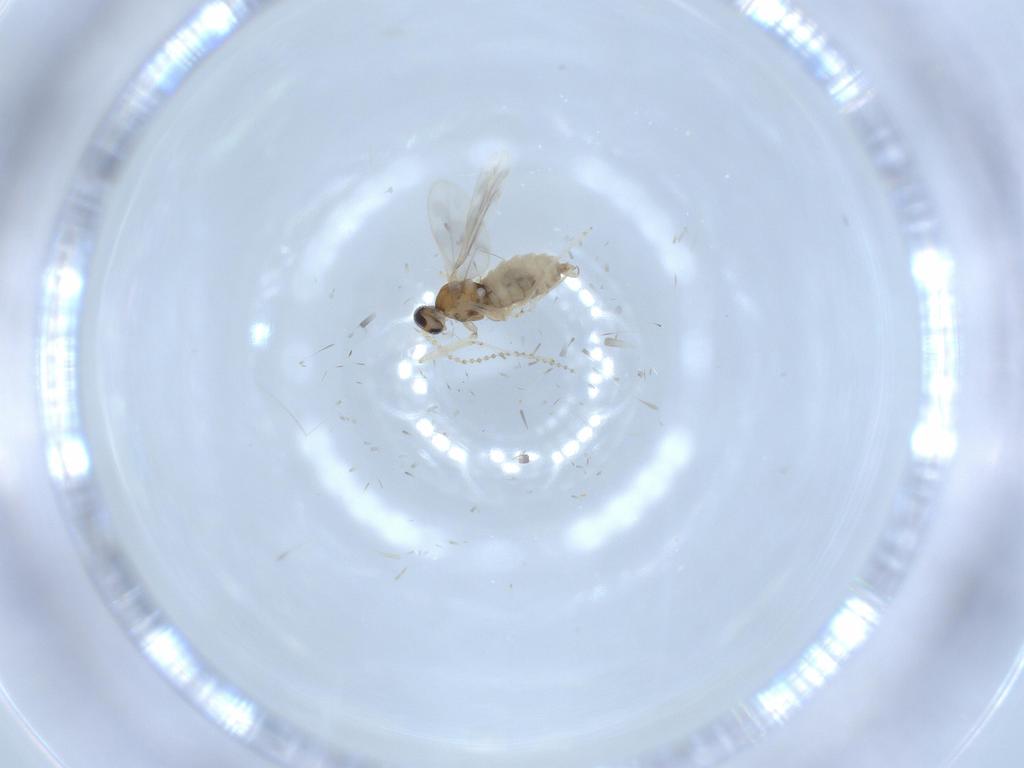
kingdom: Animalia
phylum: Arthropoda
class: Insecta
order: Diptera
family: Cecidomyiidae
